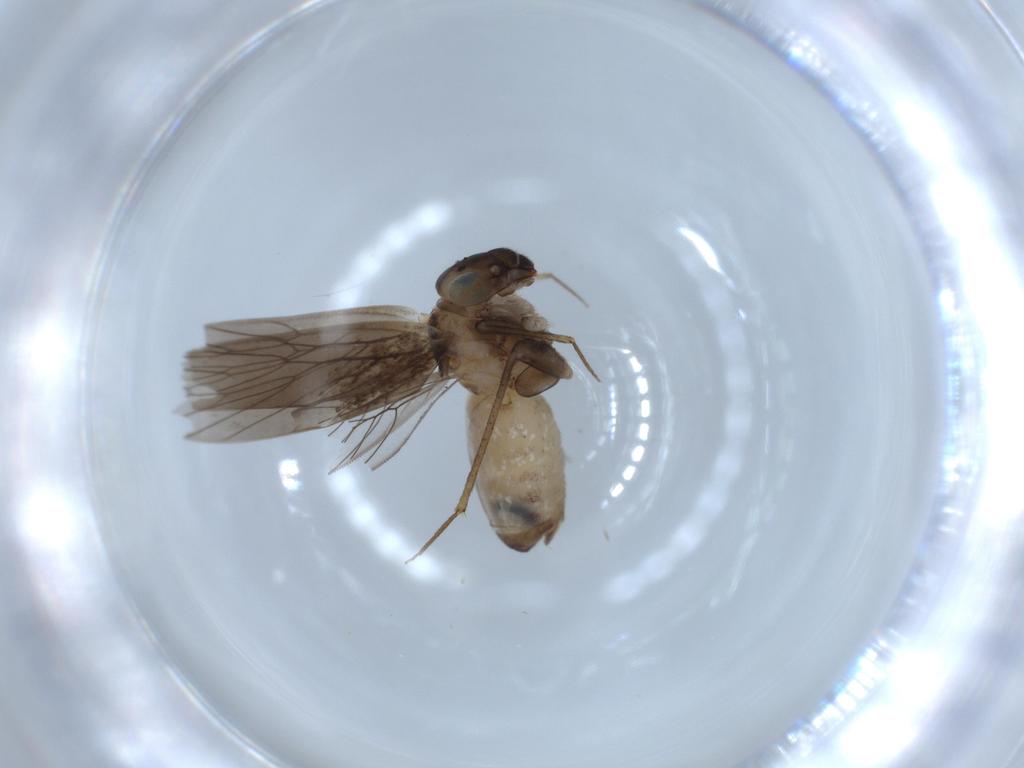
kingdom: Animalia
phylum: Arthropoda
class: Insecta
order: Psocodea
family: Lepidopsocidae
